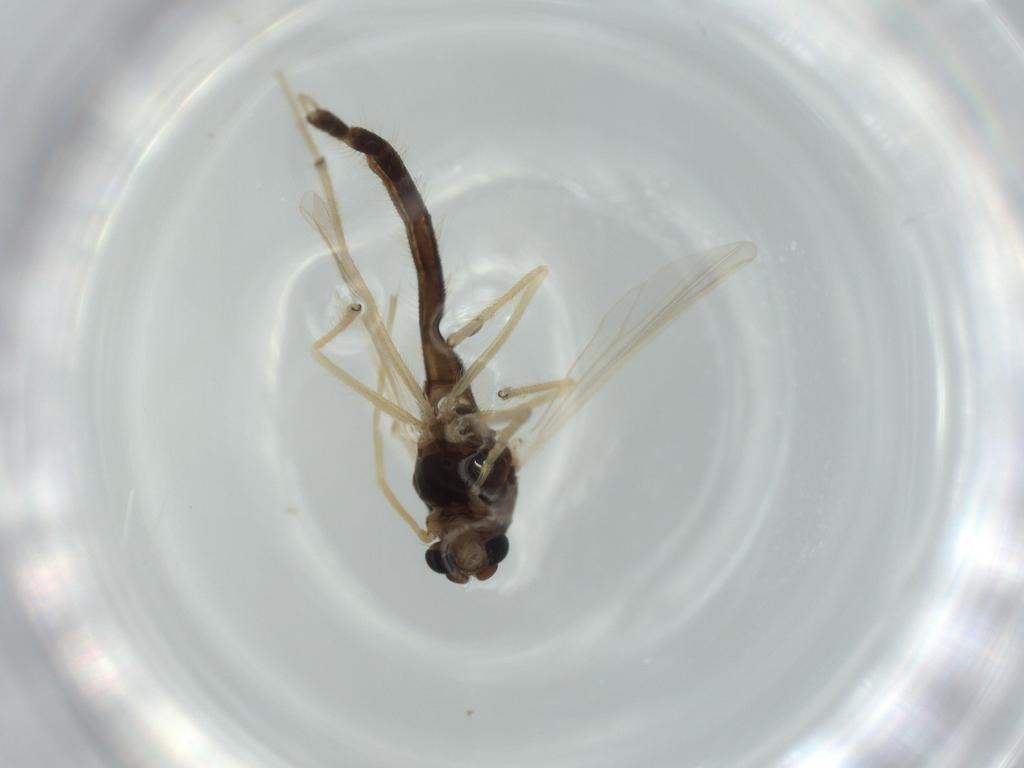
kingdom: Animalia
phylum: Arthropoda
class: Insecta
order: Diptera
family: Chironomidae
